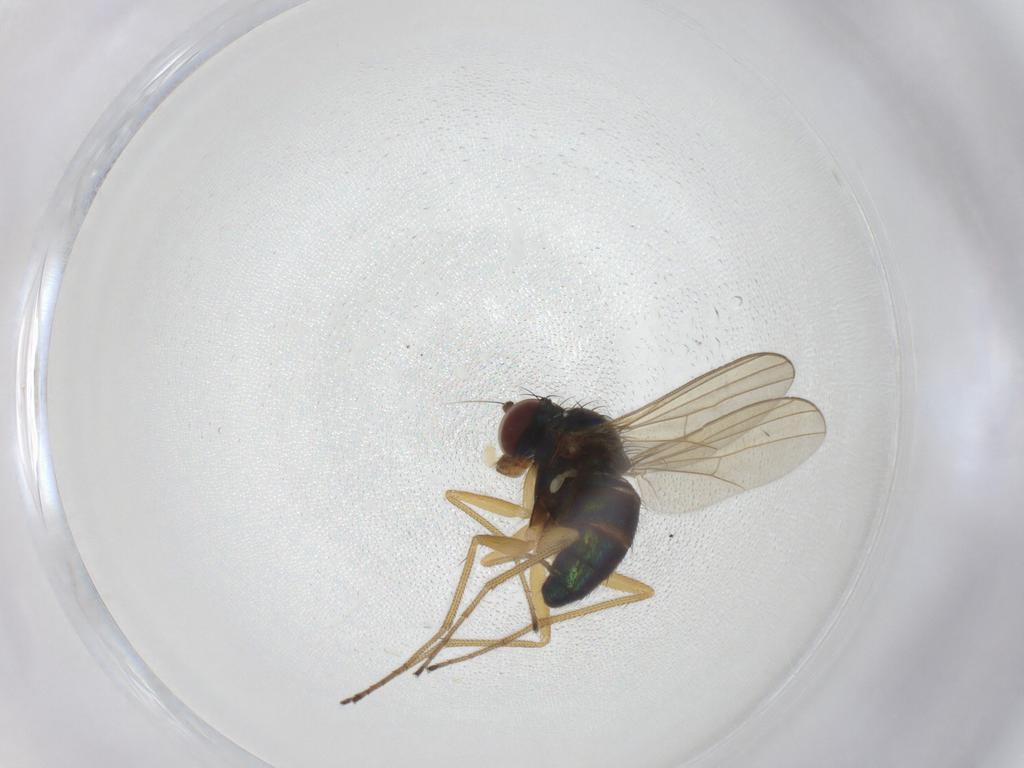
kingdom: Animalia
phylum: Arthropoda
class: Insecta
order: Diptera
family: Dolichopodidae
